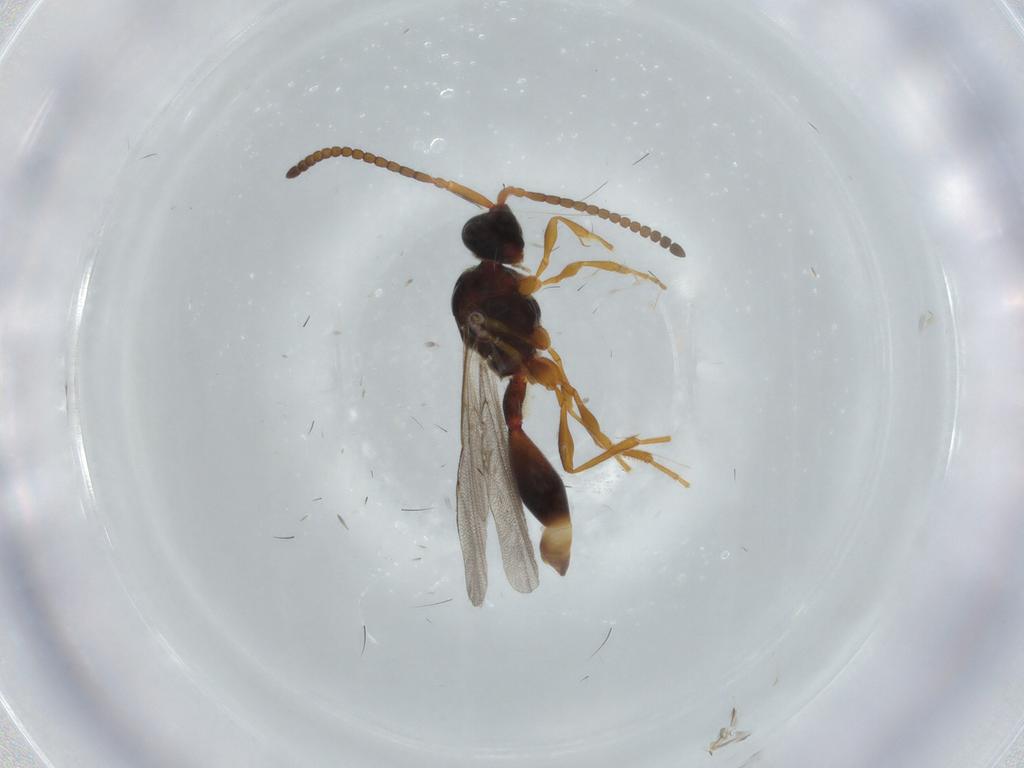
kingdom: Animalia
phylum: Arthropoda
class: Insecta
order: Hymenoptera
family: Diapriidae
